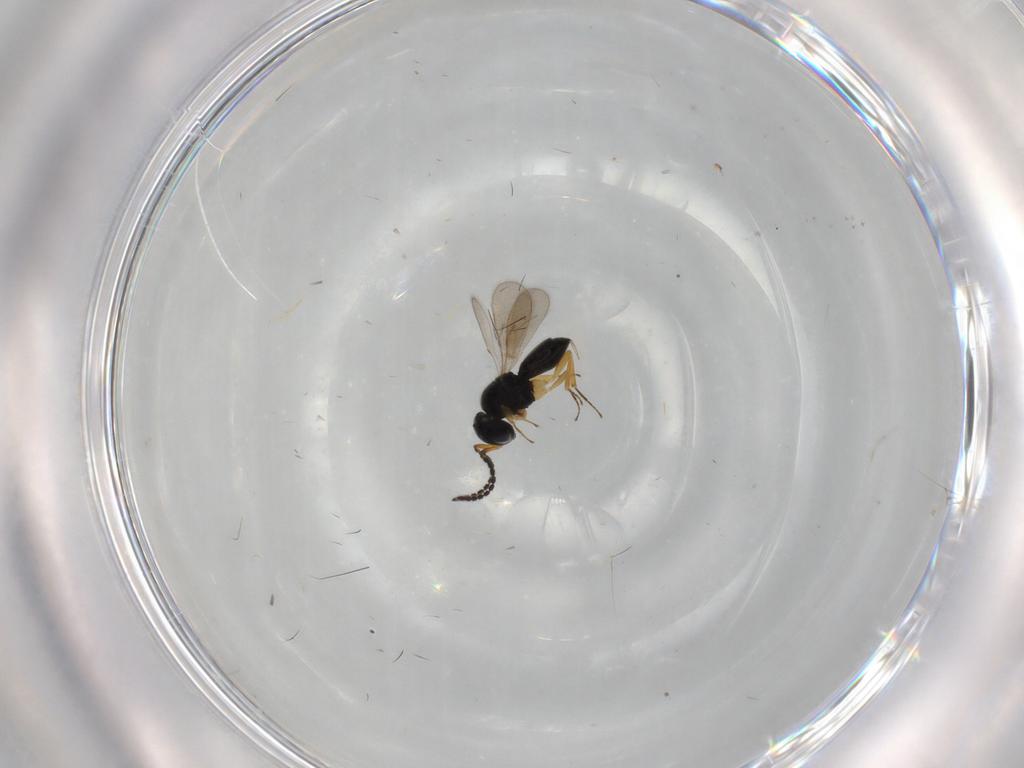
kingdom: Animalia
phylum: Arthropoda
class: Insecta
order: Hymenoptera
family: Scelionidae
